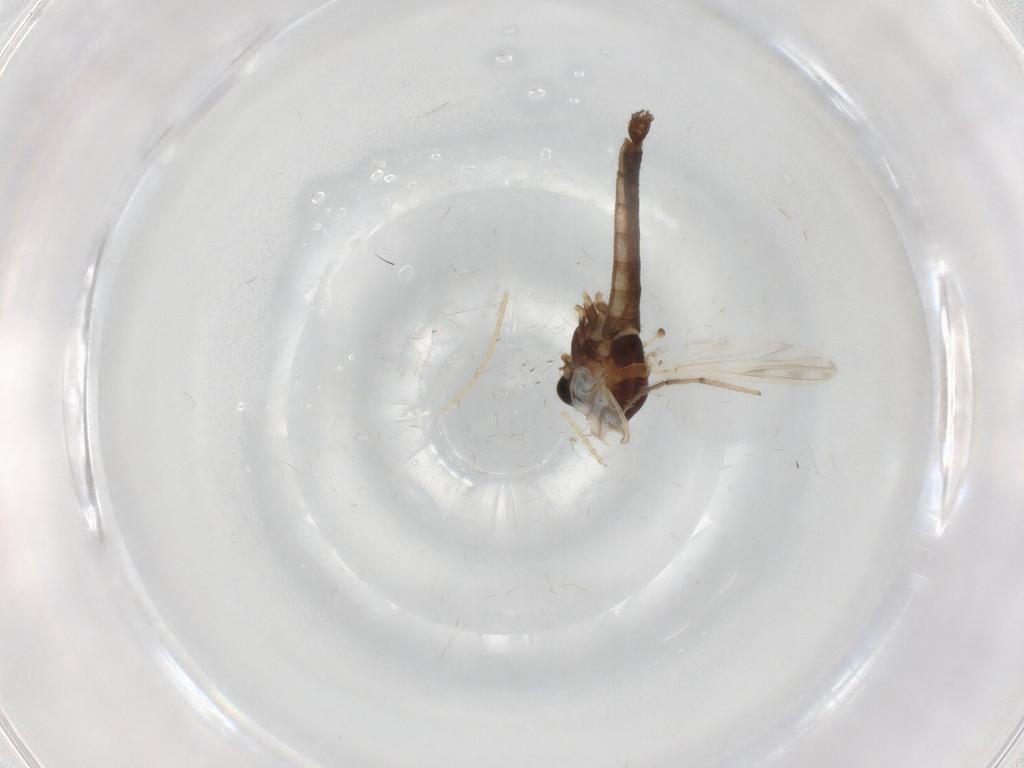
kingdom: Animalia
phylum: Arthropoda
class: Insecta
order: Diptera
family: Chironomidae
